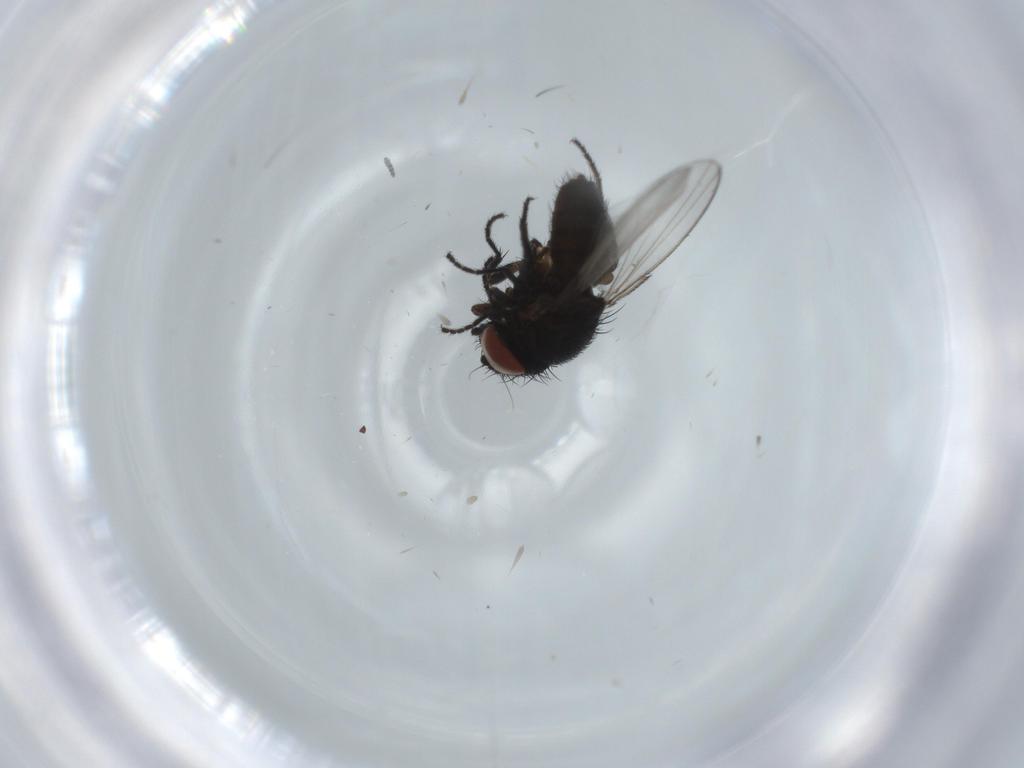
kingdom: Animalia
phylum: Arthropoda
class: Insecta
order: Diptera
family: Milichiidae
